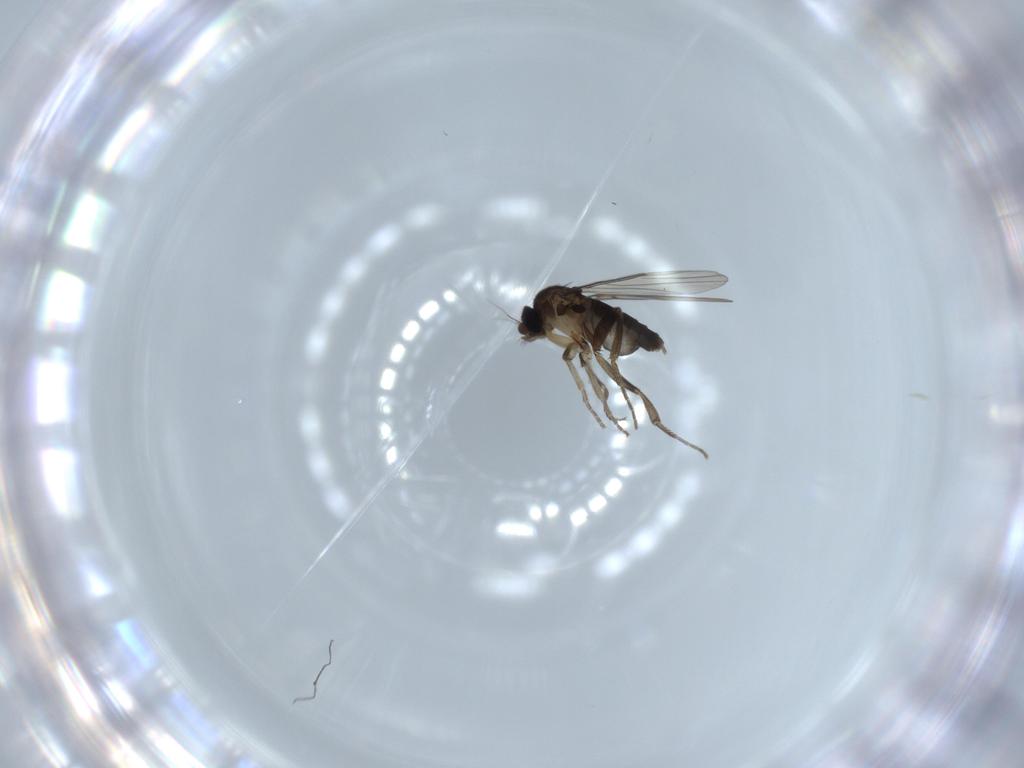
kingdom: Animalia
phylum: Arthropoda
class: Insecta
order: Diptera
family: Phoridae
